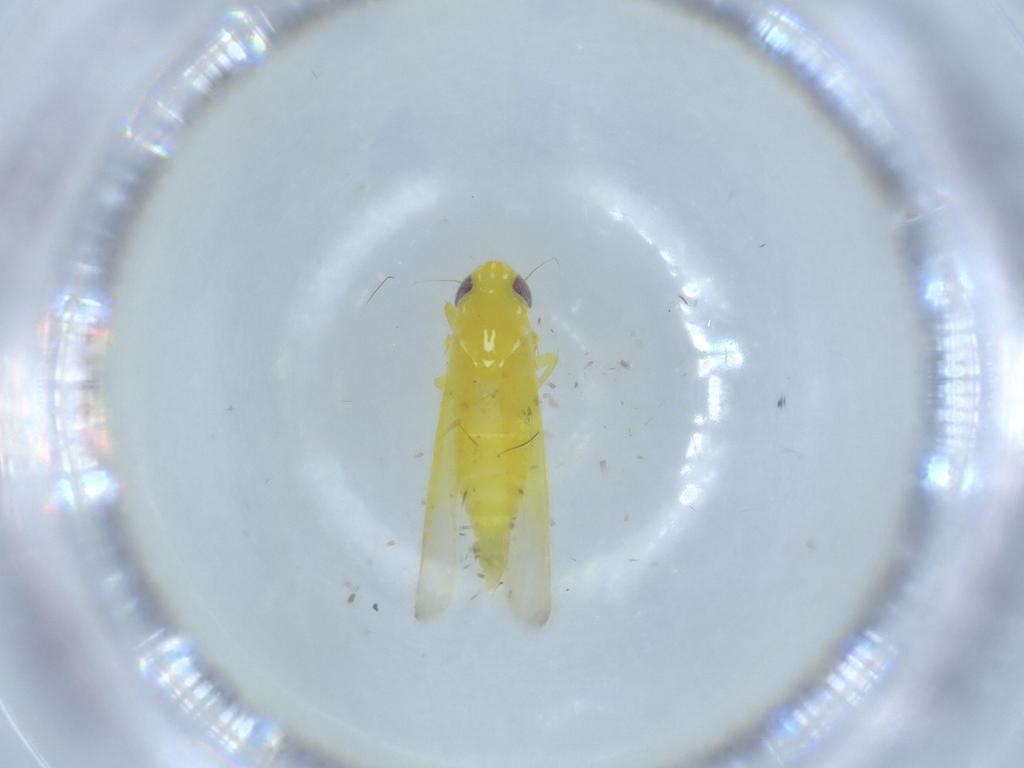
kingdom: Animalia
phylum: Arthropoda
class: Insecta
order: Hemiptera
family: Cicadellidae
